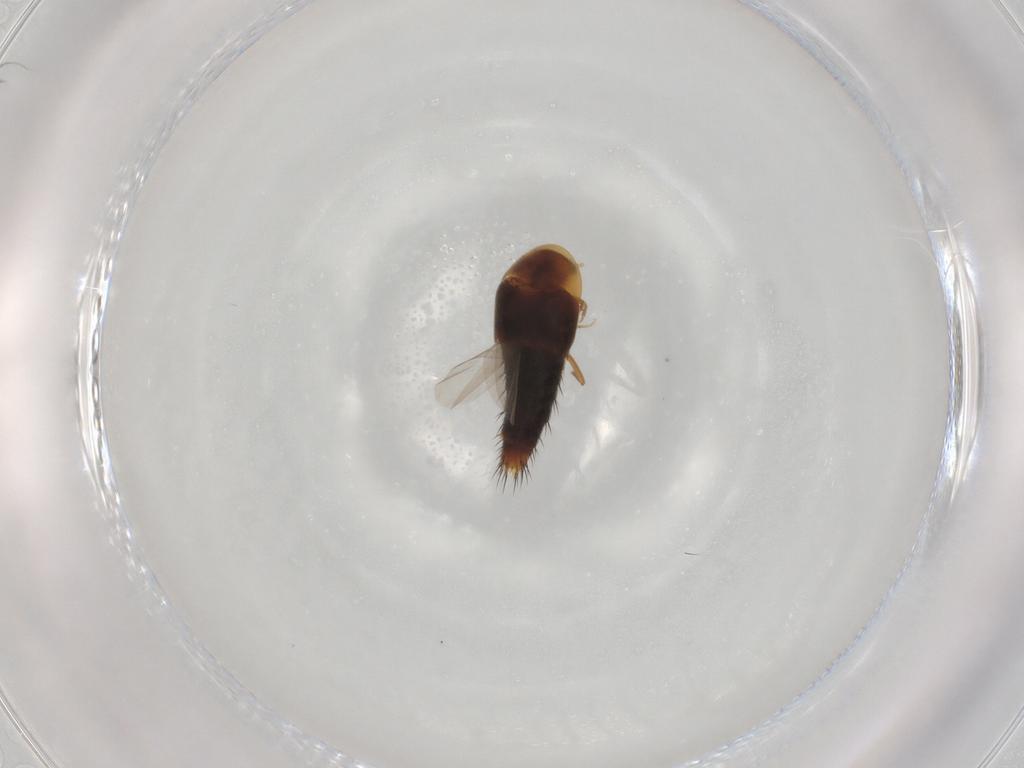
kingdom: Animalia
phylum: Arthropoda
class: Insecta
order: Coleoptera
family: Staphylinidae
